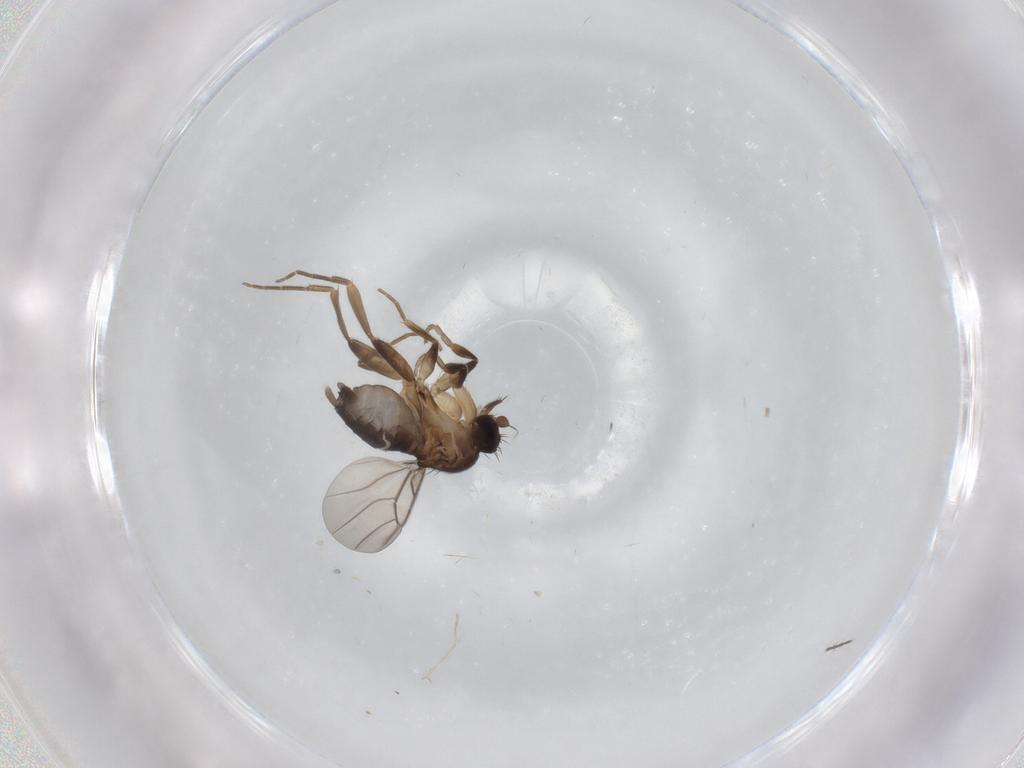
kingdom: Animalia
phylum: Arthropoda
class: Insecta
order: Diptera
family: Phoridae
